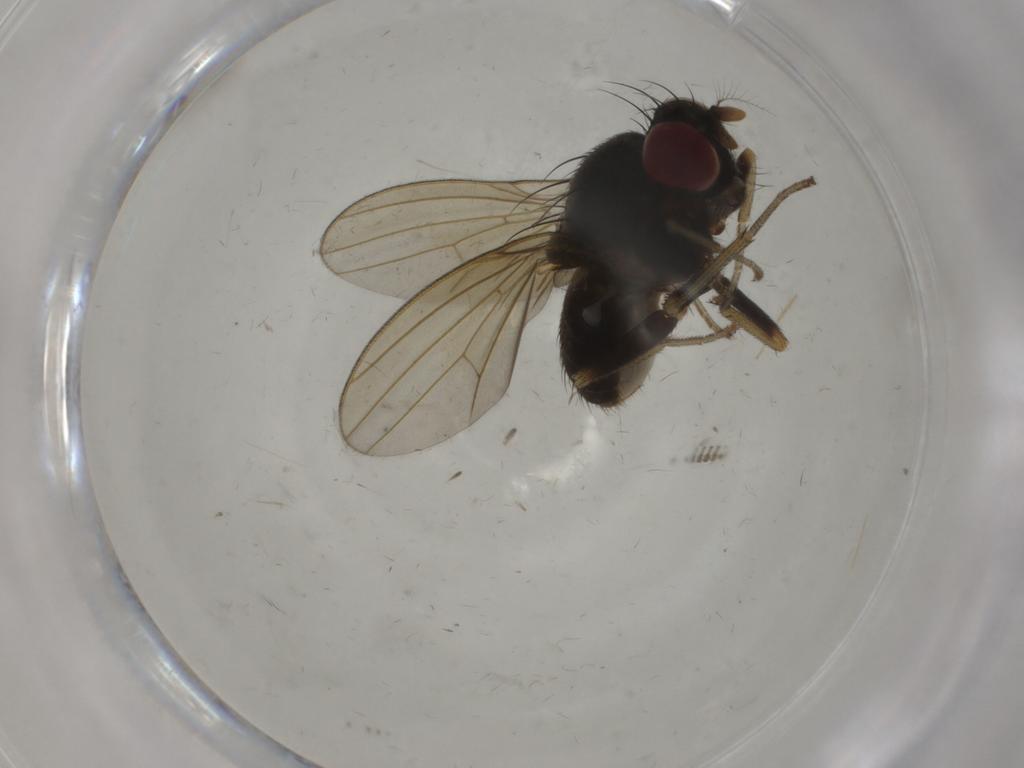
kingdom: Animalia
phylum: Arthropoda
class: Insecta
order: Diptera
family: Lauxaniidae
